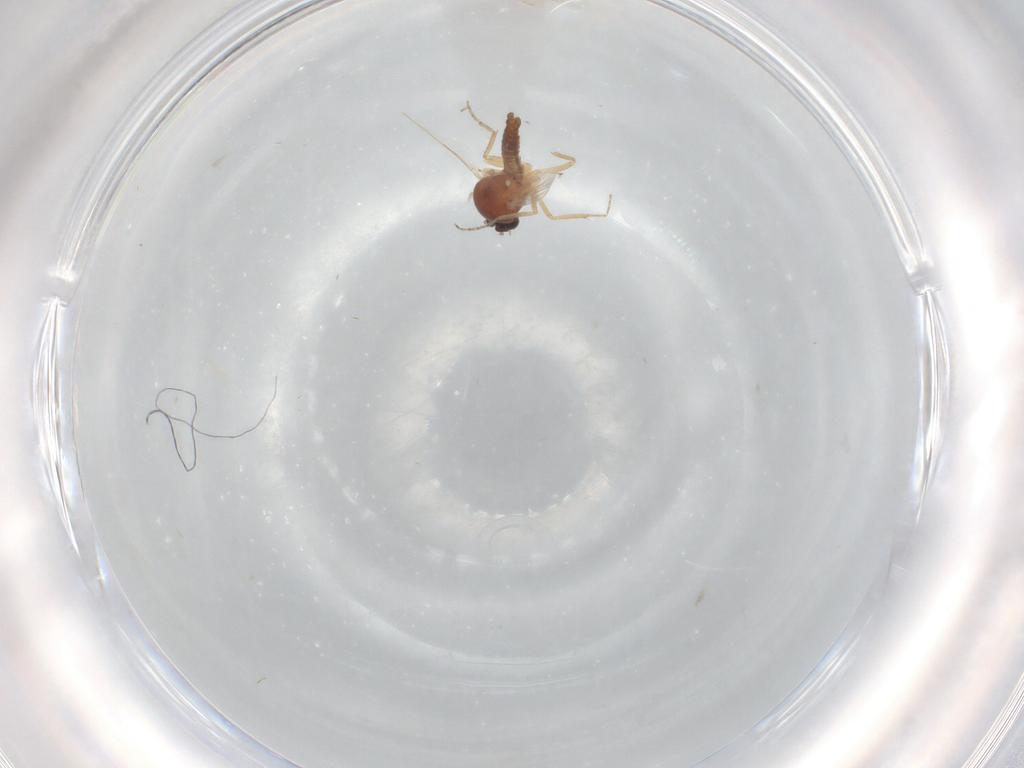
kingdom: Animalia
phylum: Arthropoda
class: Insecta
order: Diptera
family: Ceratopogonidae
